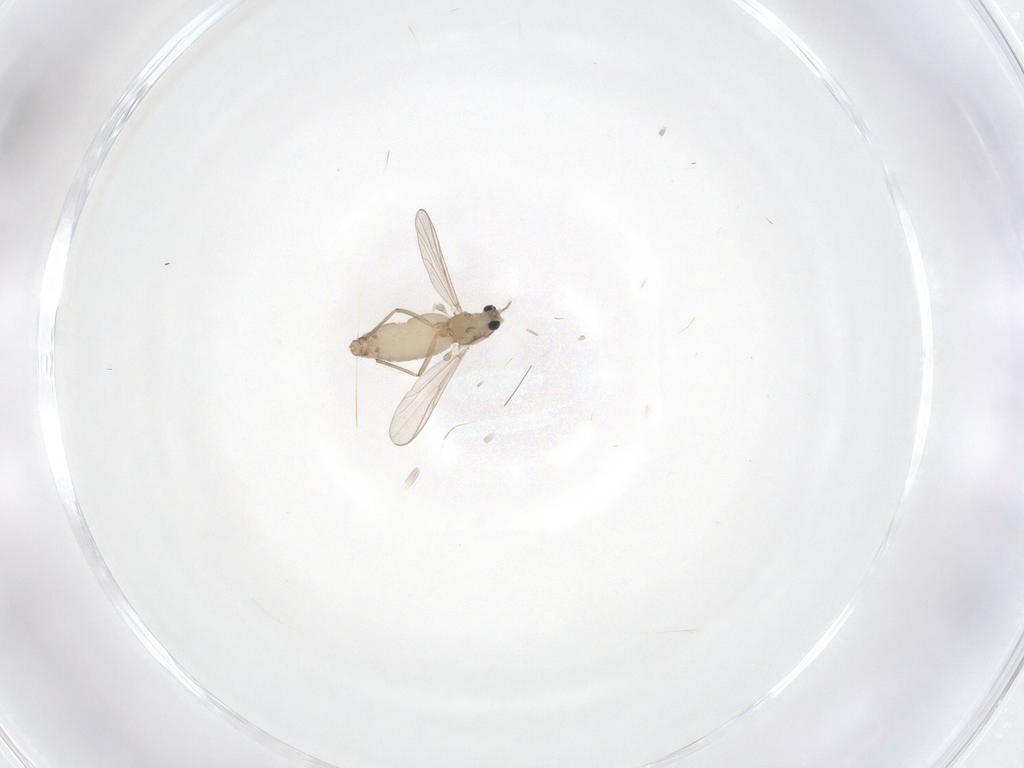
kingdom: Animalia
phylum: Arthropoda
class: Insecta
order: Diptera
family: Chironomidae
